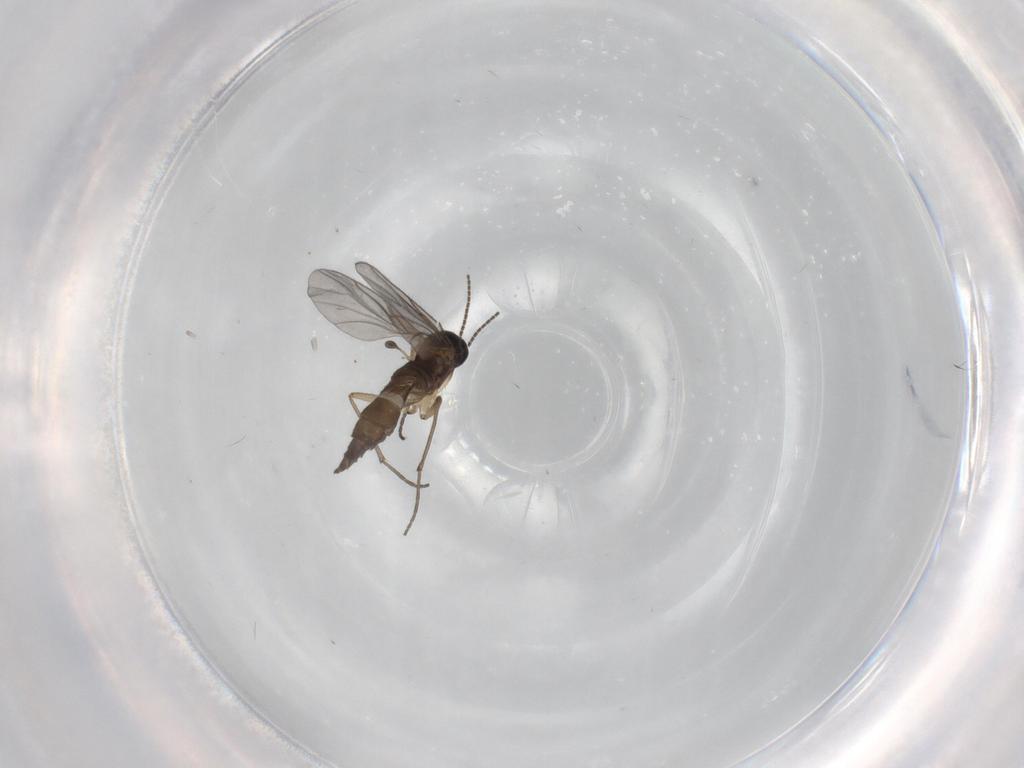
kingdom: Animalia
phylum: Arthropoda
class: Insecta
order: Diptera
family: Sciaridae
